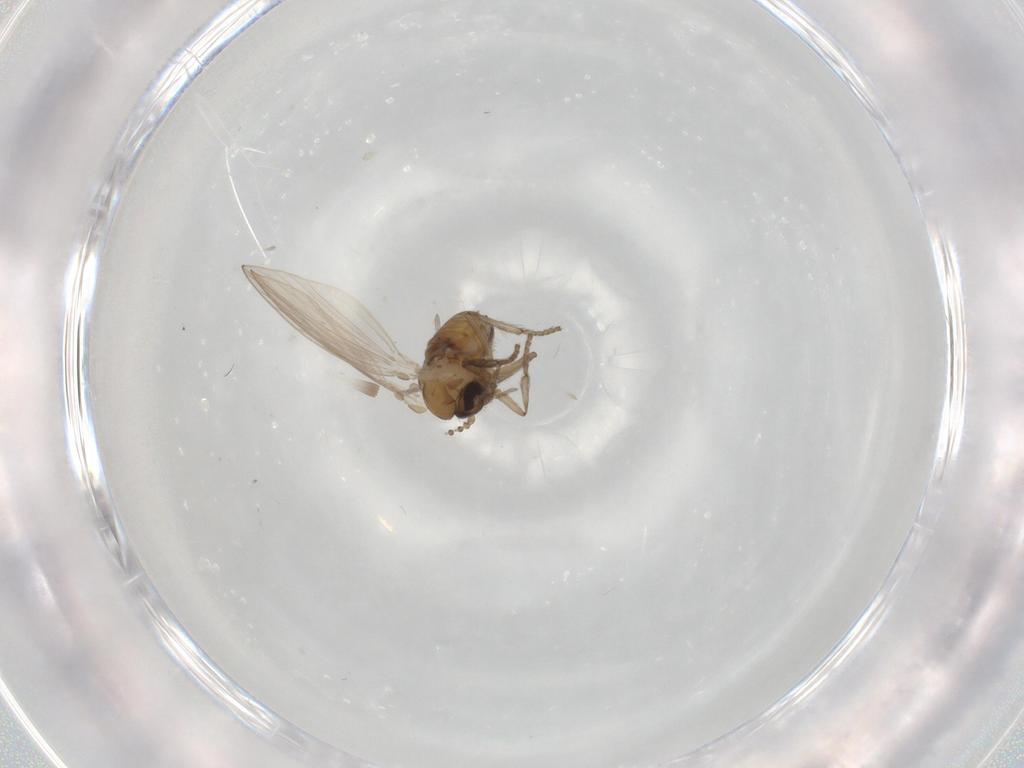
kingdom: Animalia
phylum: Arthropoda
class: Insecta
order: Diptera
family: Psychodidae
